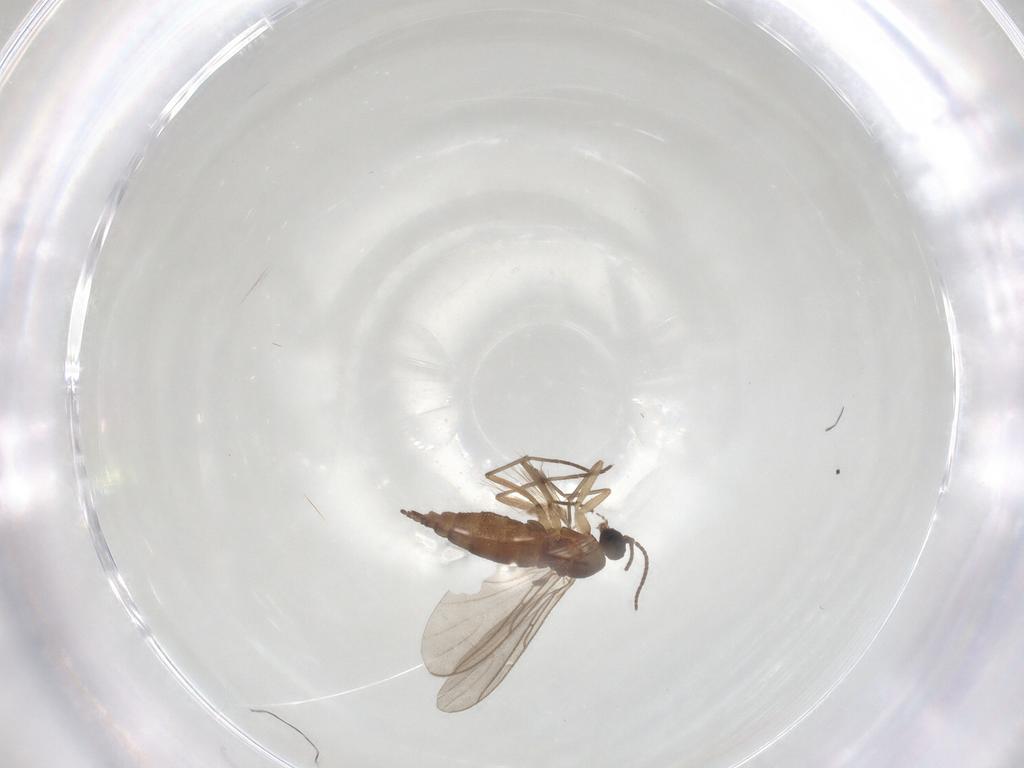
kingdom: Animalia
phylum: Arthropoda
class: Insecta
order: Diptera
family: Sciaridae
